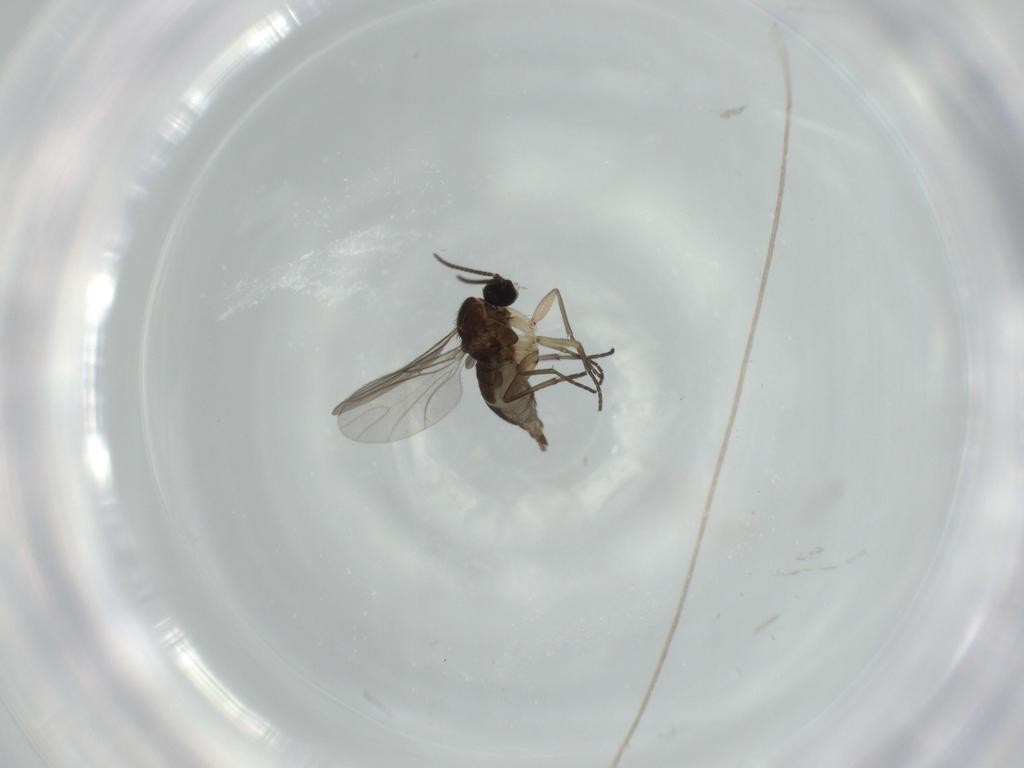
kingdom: Animalia
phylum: Arthropoda
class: Insecta
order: Diptera
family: Sciaridae
